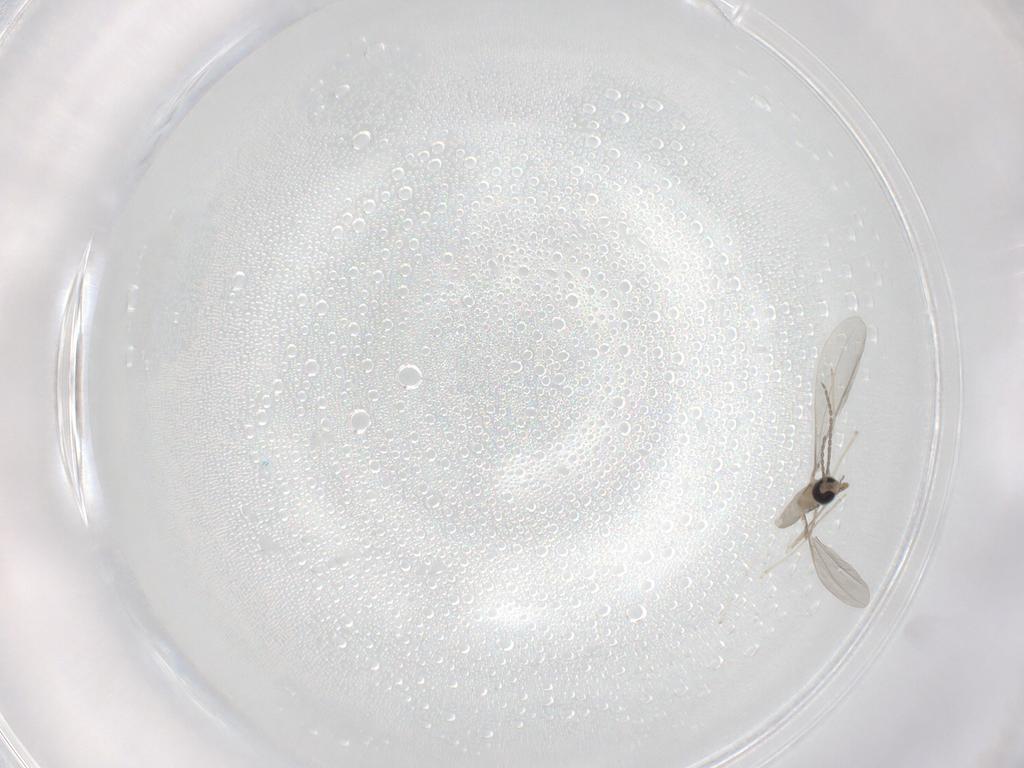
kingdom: Animalia
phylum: Arthropoda
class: Insecta
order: Diptera
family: Cecidomyiidae
